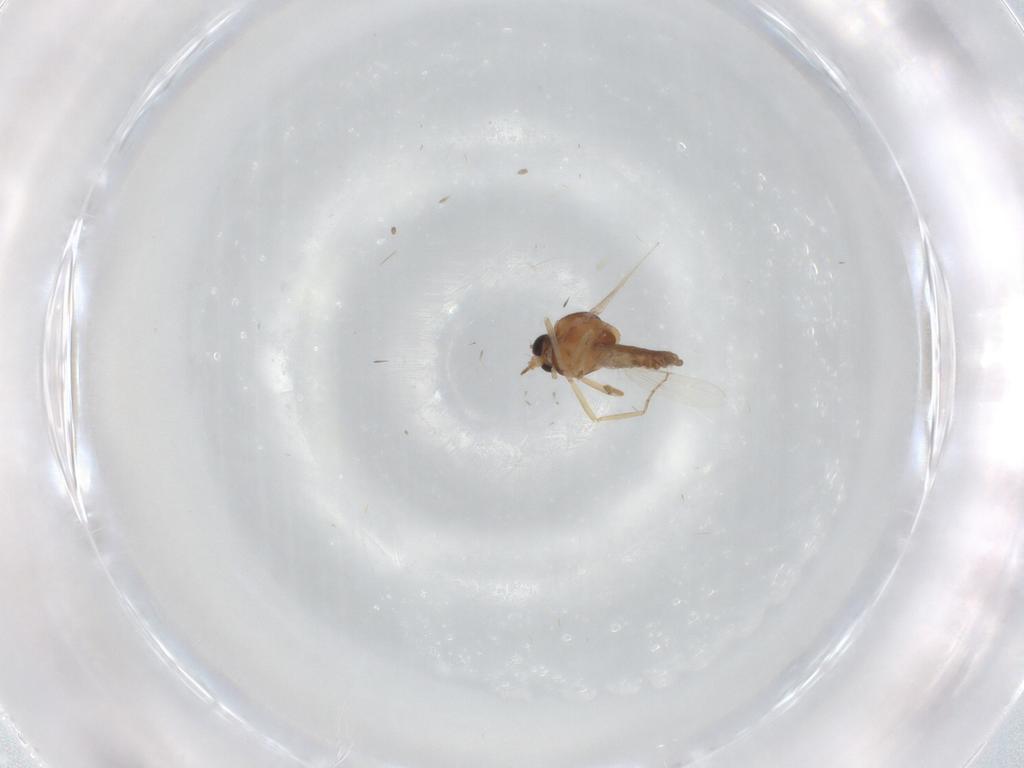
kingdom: Animalia
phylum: Arthropoda
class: Insecta
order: Diptera
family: Ceratopogonidae
